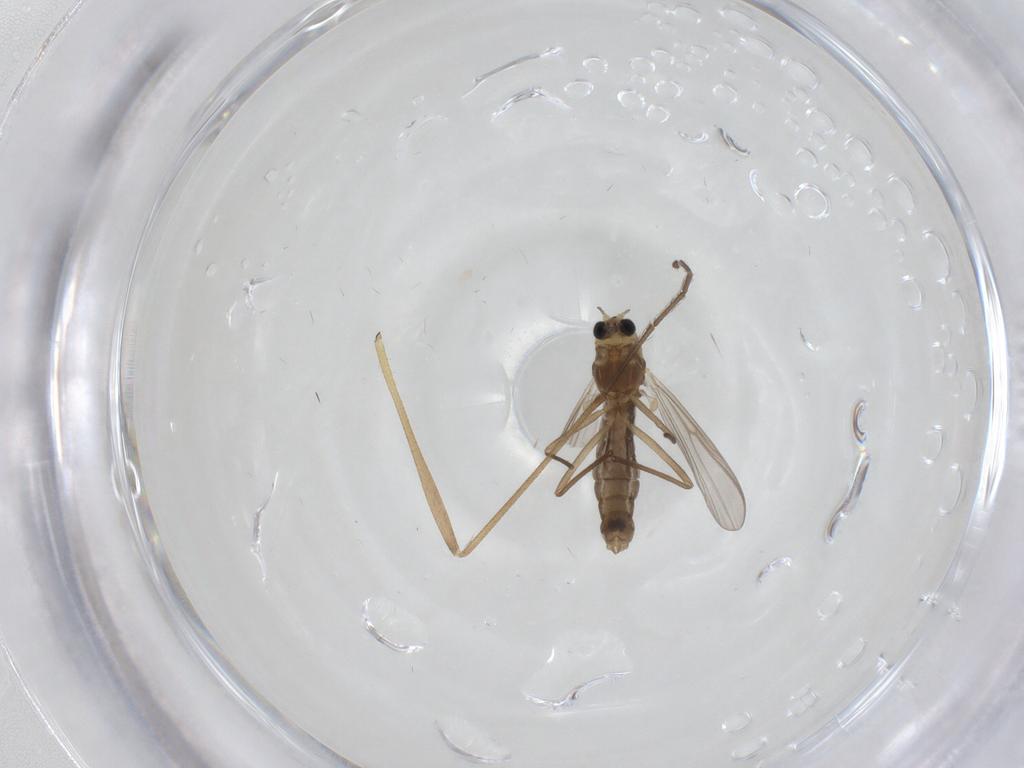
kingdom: Animalia
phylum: Arthropoda
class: Insecta
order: Diptera
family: Chironomidae
